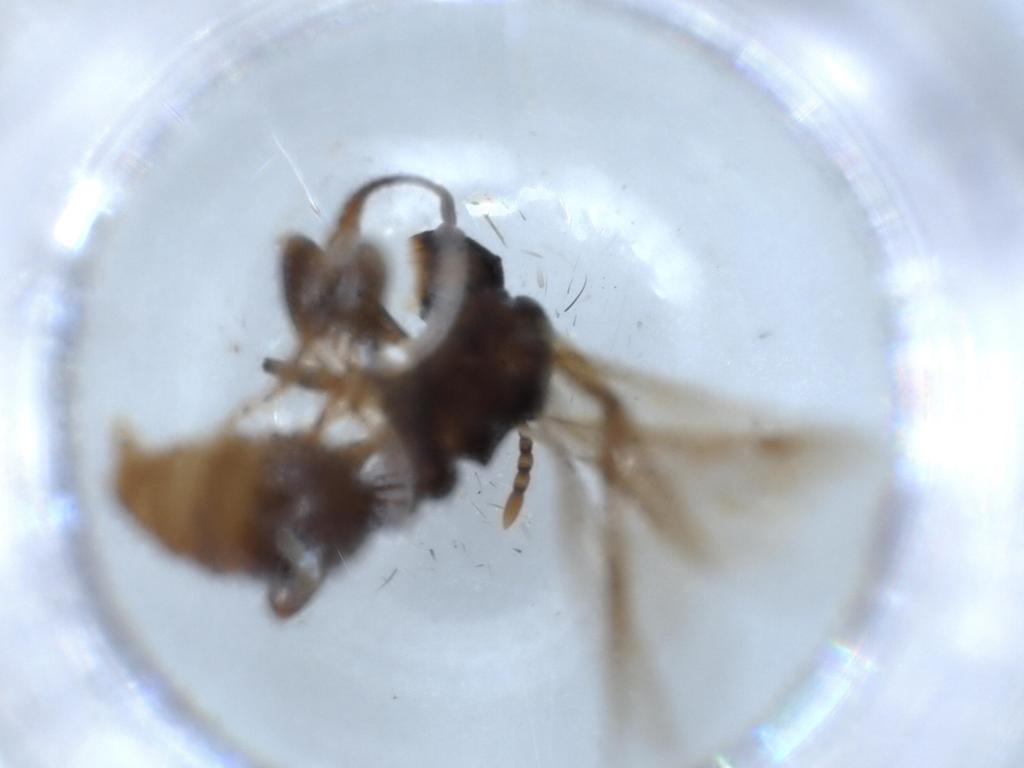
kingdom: Animalia
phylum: Arthropoda
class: Insecta
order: Hymenoptera
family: Formicidae
